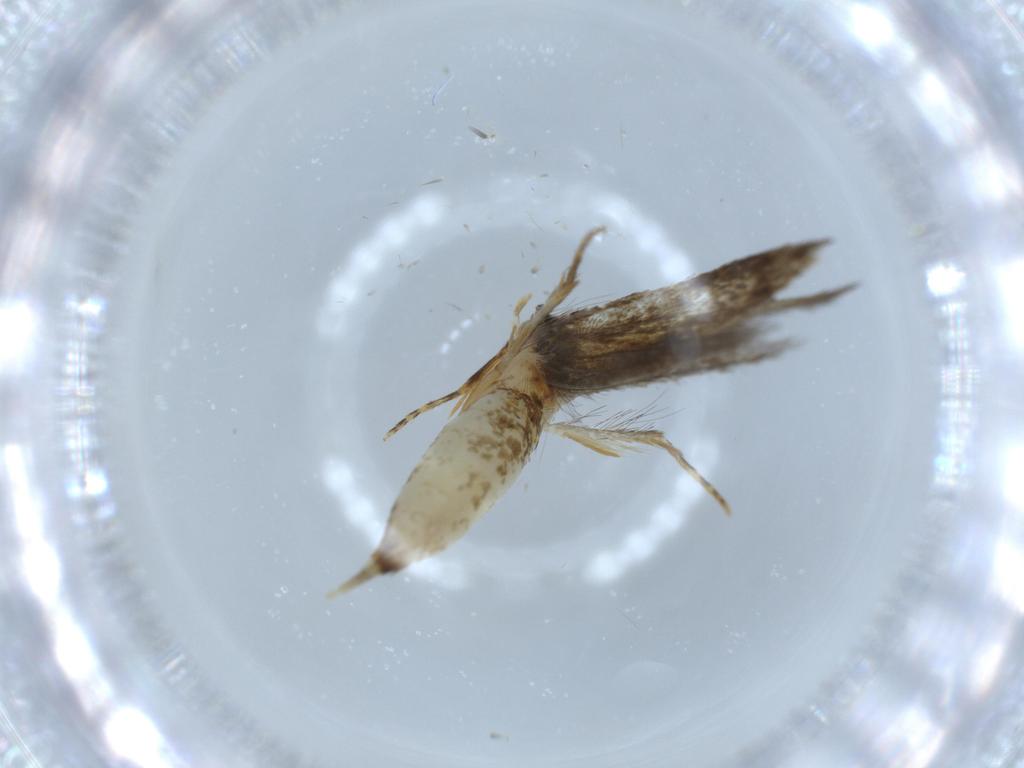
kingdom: Animalia
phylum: Arthropoda
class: Insecta
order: Lepidoptera
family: Tineidae
